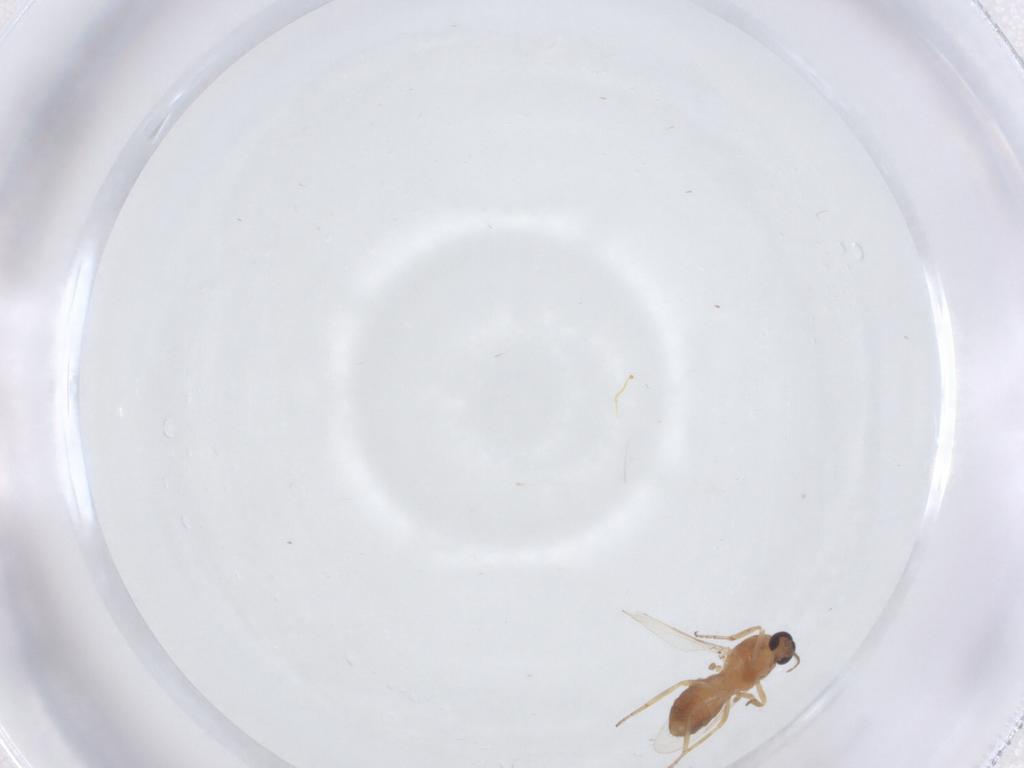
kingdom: Animalia
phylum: Arthropoda
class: Insecta
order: Diptera
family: Ceratopogonidae
